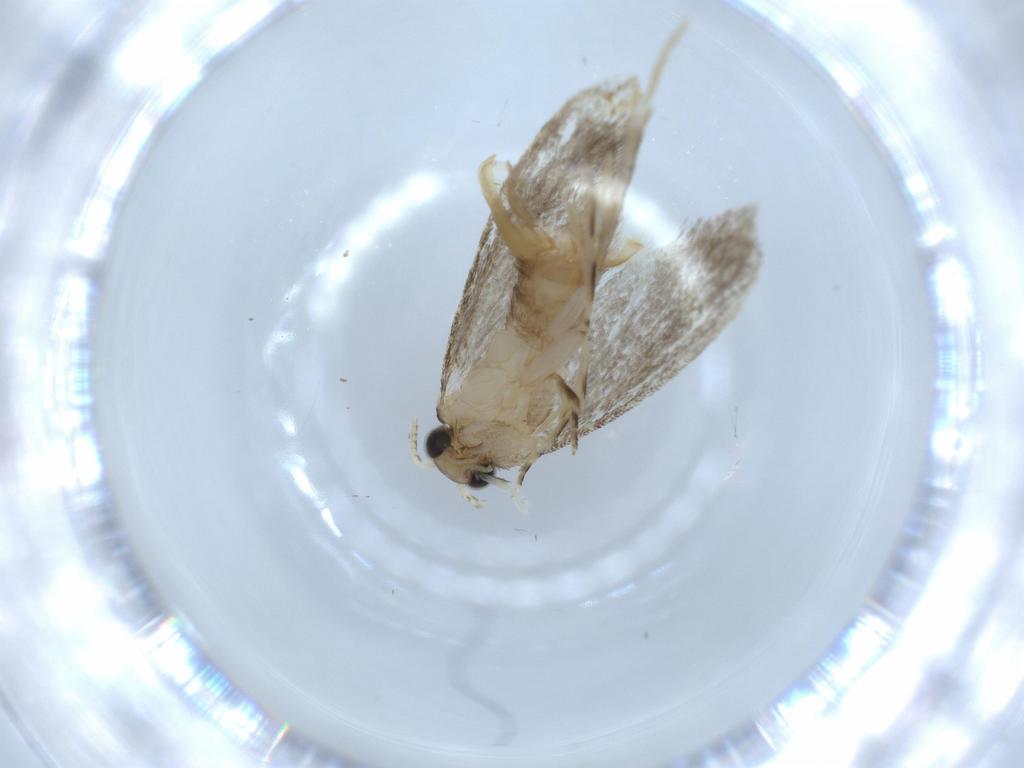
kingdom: Animalia
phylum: Arthropoda
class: Insecta
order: Lepidoptera
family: Tineidae
